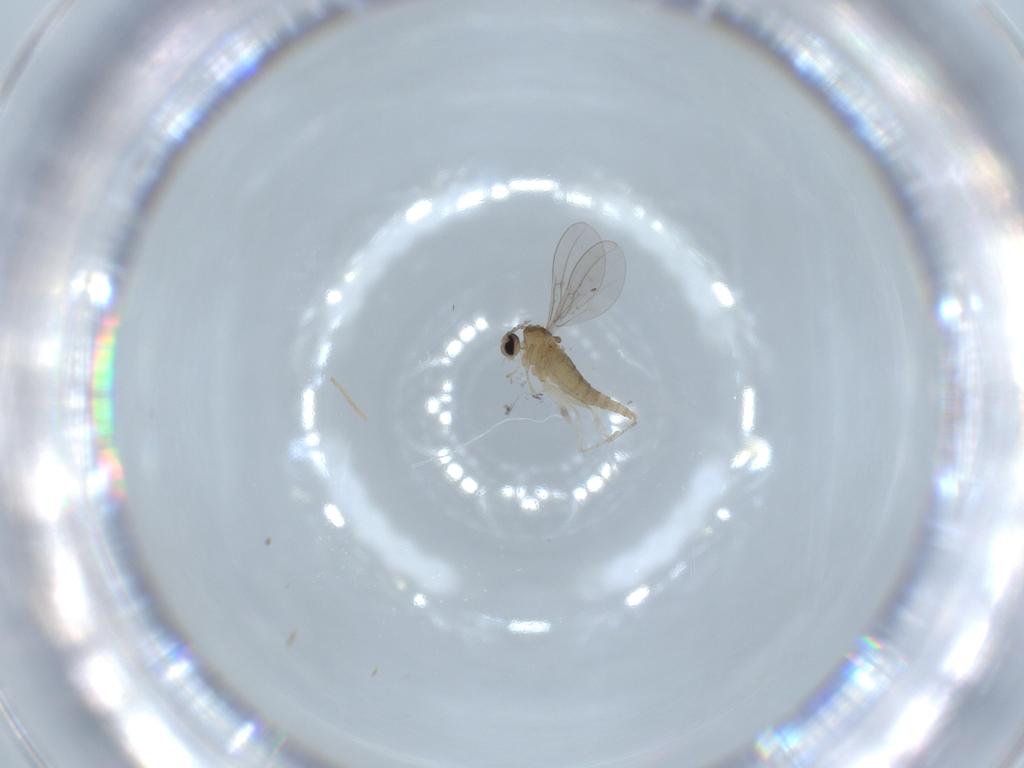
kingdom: Animalia
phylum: Arthropoda
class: Insecta
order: Diptera
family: Cecidomyiidae
